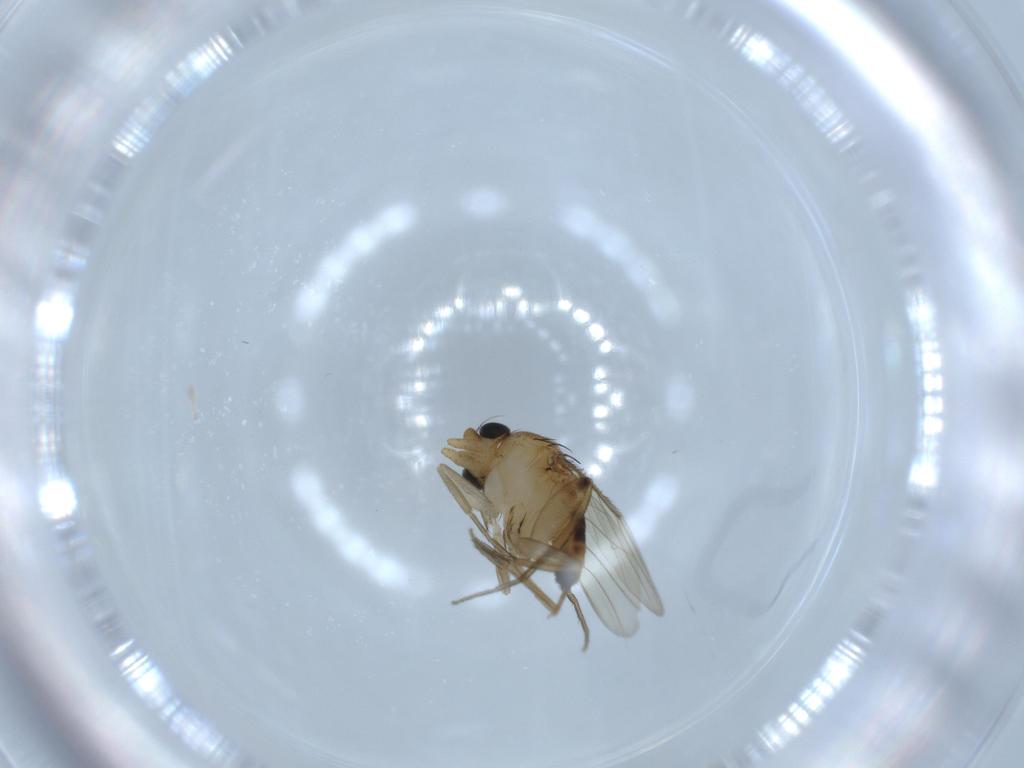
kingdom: Animalia
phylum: Arthropoda
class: Insecta
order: Diptera
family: Phoridae
